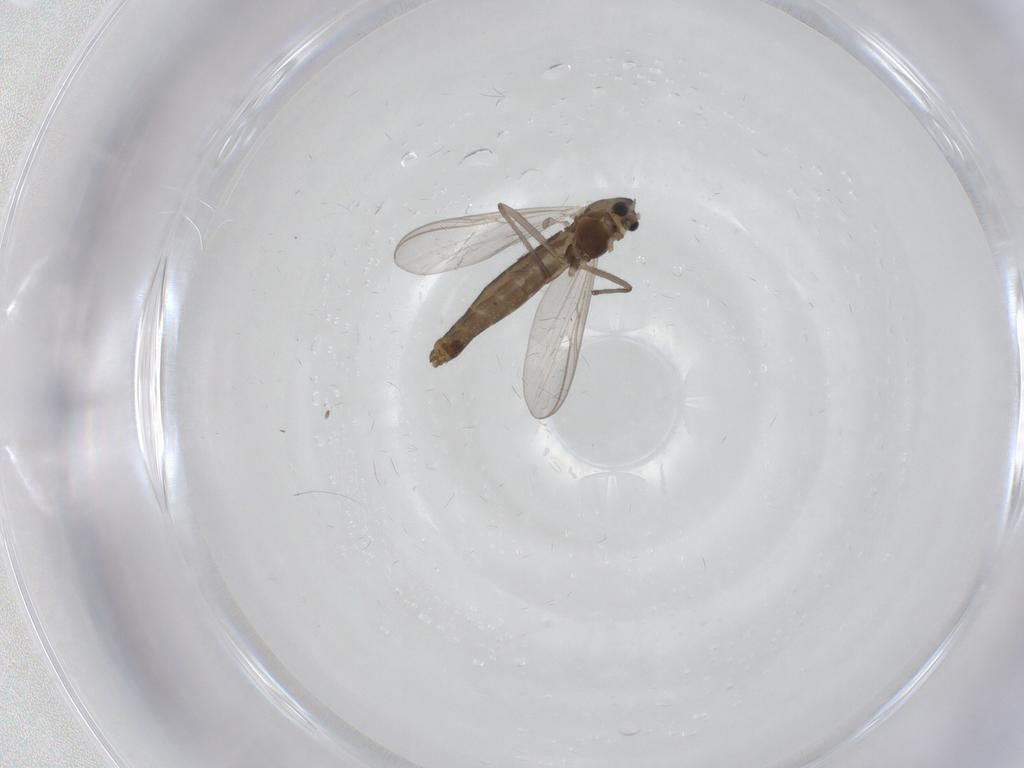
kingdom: Animalia
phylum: Arthropoda
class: Insecta
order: Diptera
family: Chironomidae
